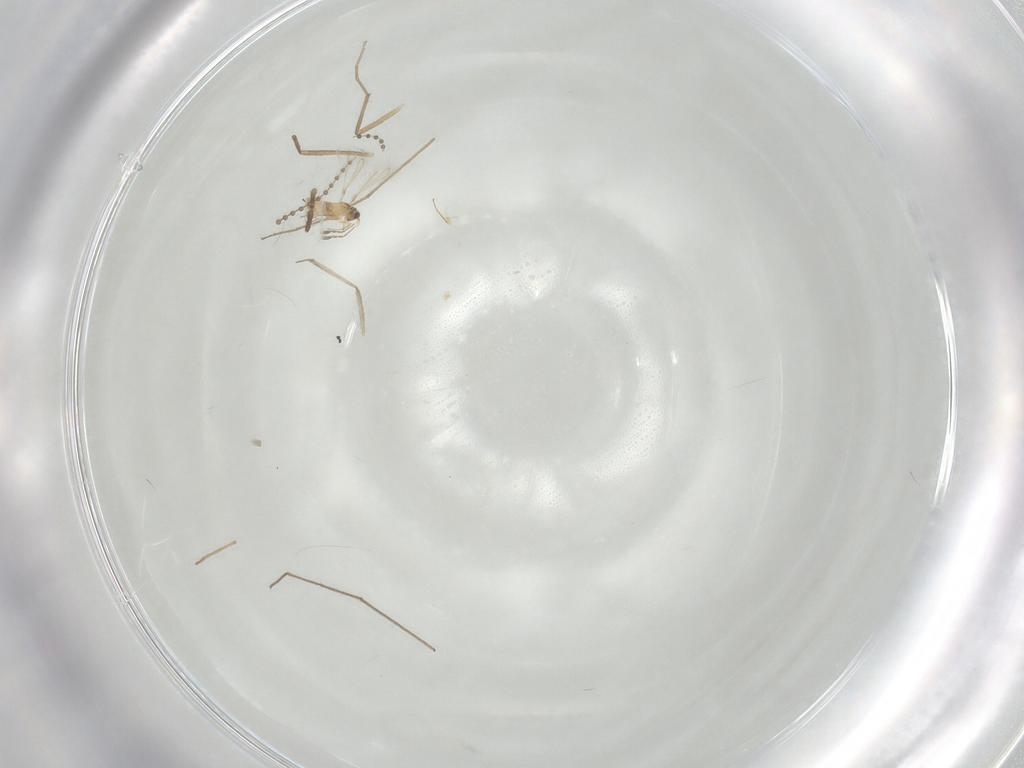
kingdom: Animalia
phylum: Arthropoda
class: Insecta
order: Hymenoptera
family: Mymaridae
